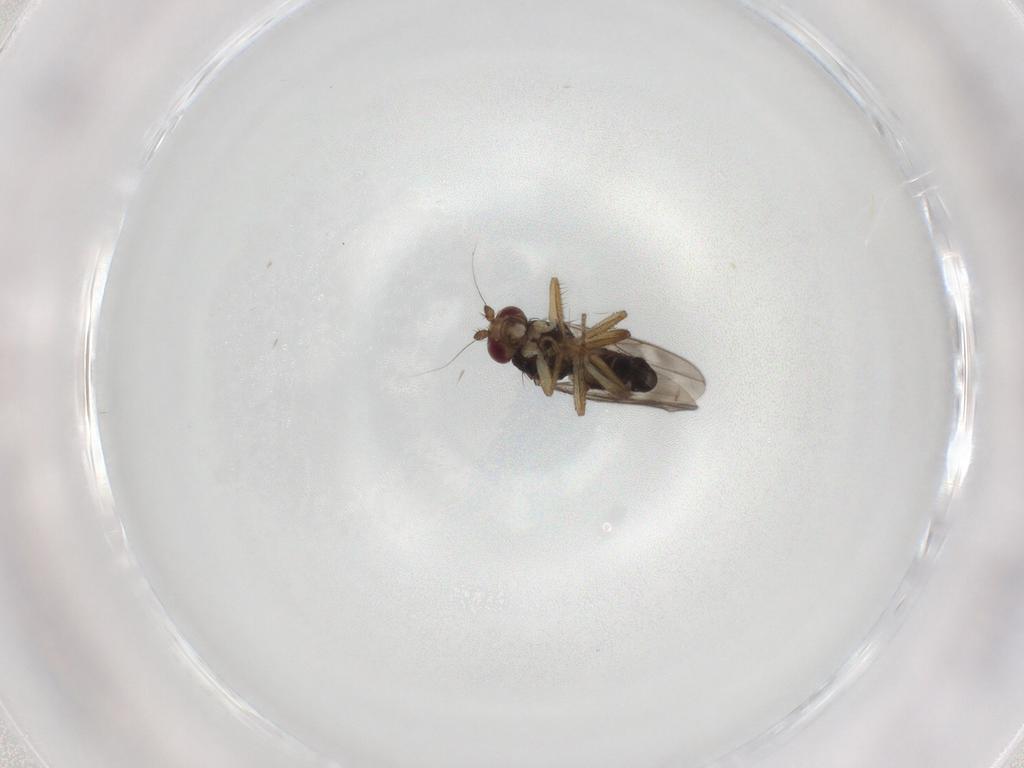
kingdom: Animalia
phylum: Arthropoda
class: Insecta
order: Diptera
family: Sphaeroceridae
